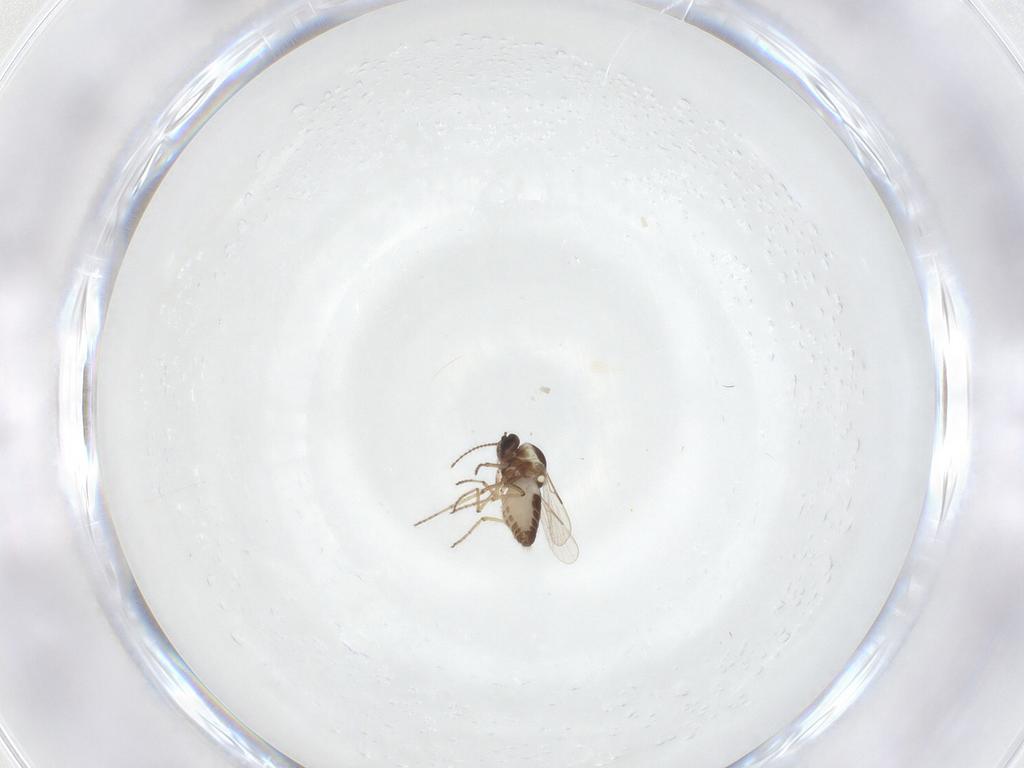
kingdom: Animalia
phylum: Arthropoda
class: Insecta
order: Diptera
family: Ceratopogonidae
